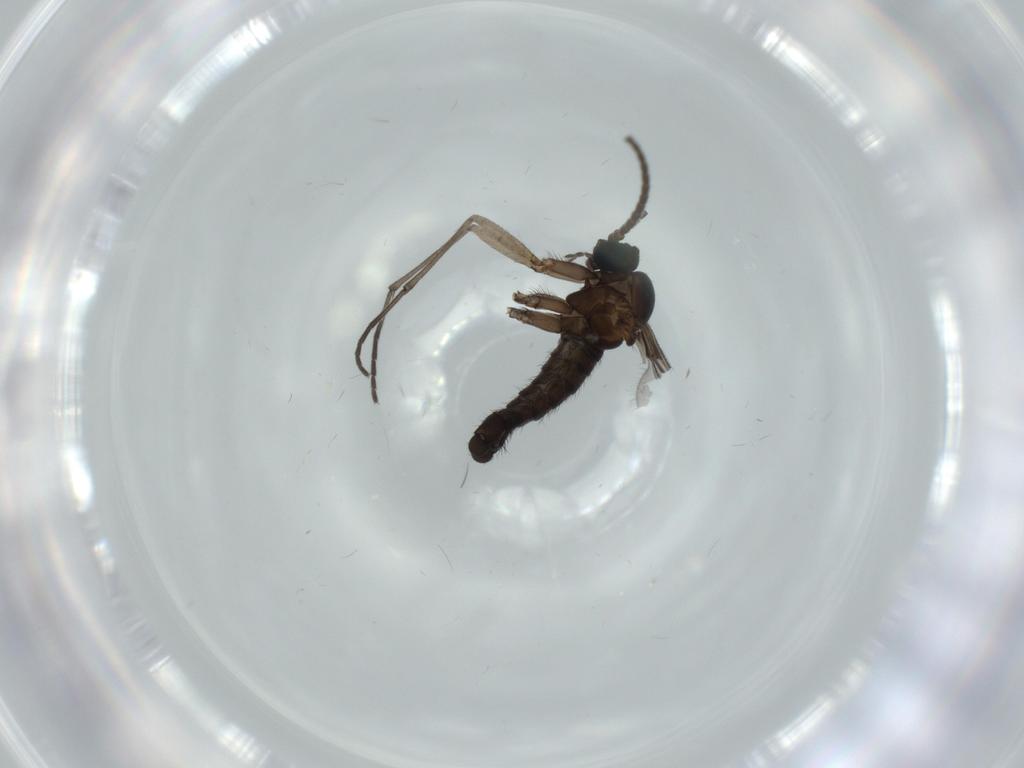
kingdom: Animalia
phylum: Arthropoda
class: Insecta
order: Diptera
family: Sciaridae
